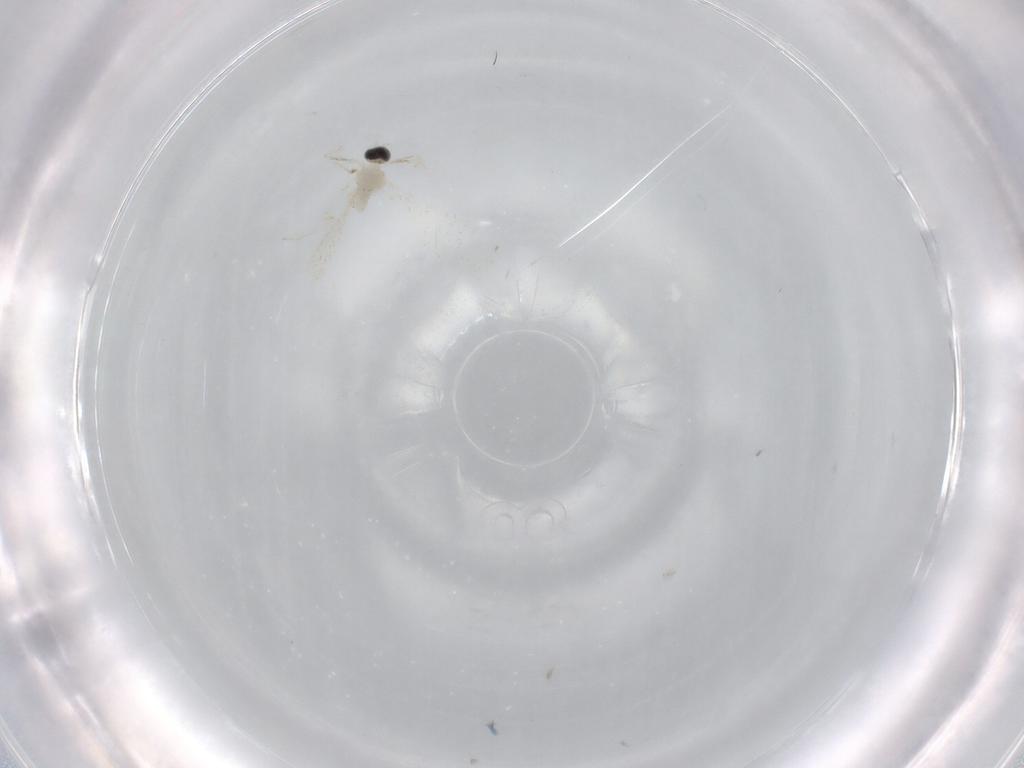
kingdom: Animalia
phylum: Arthropoda
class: Insecta
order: Diptera
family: Cecidomyiidae
